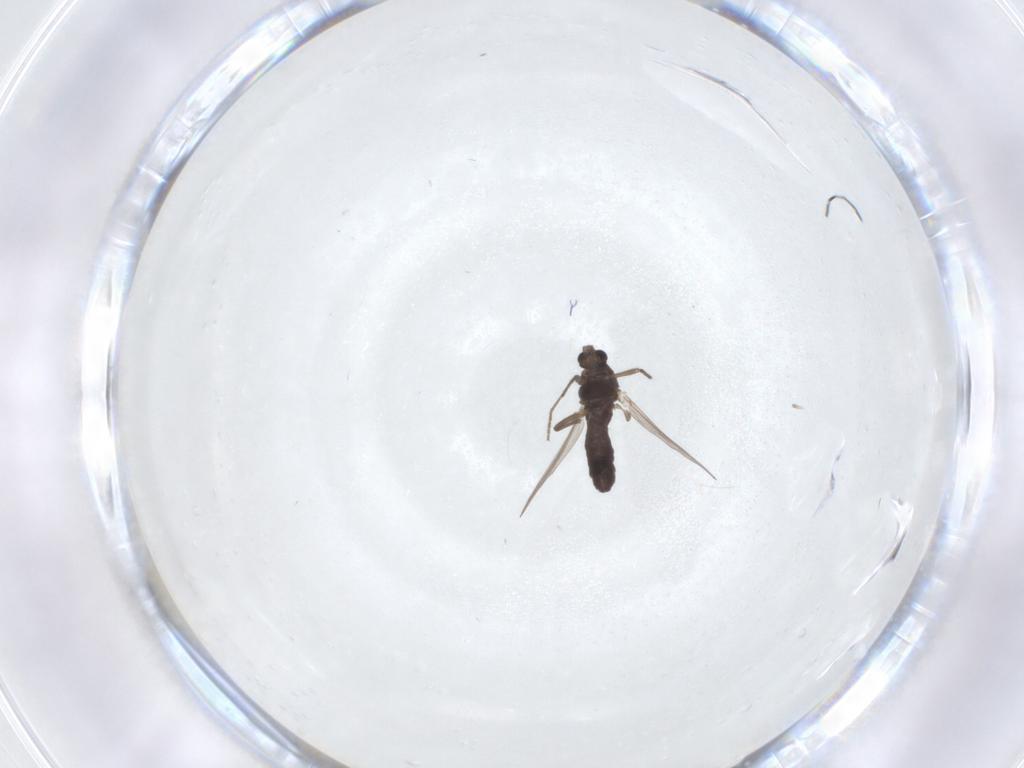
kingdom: Animalia
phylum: Arthropoda
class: Insecta
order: Diptera
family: Chironomidae
